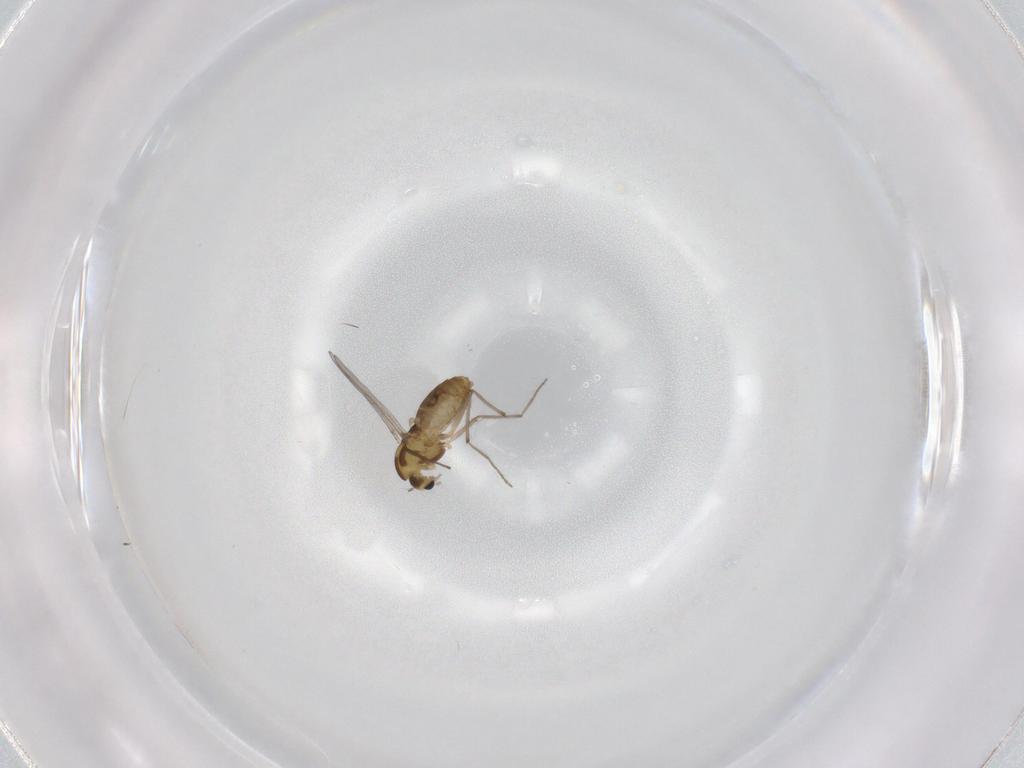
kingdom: Animalia
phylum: Arthropoda
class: Insecta
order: Diptera
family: Chironomidae
